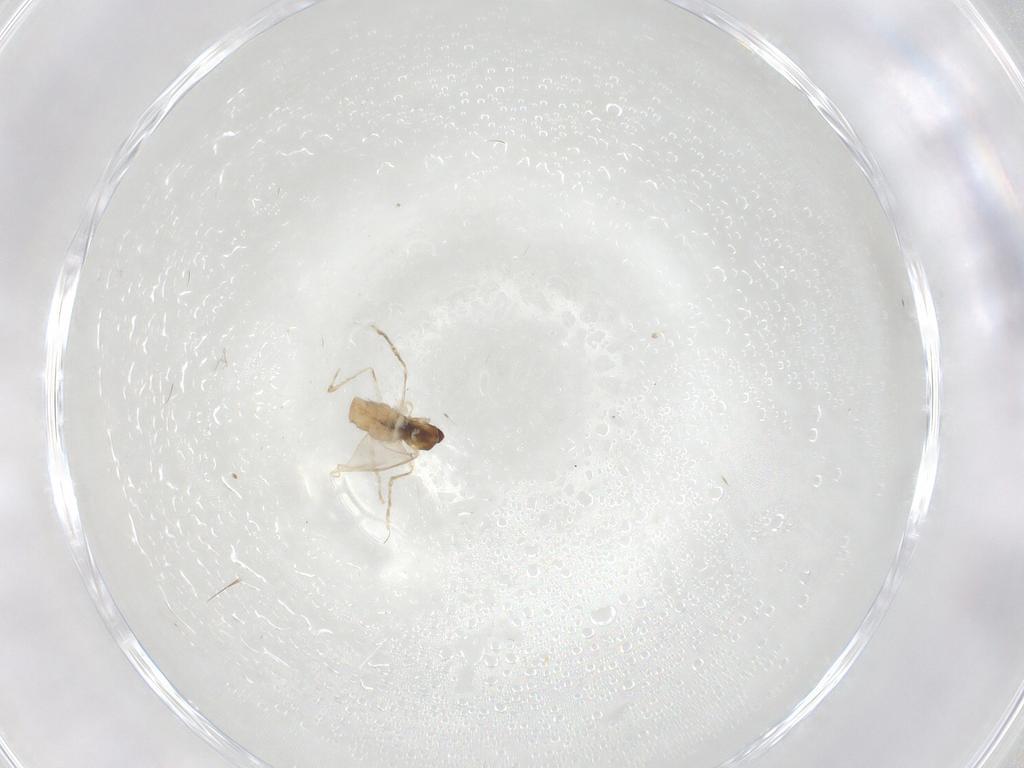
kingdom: Animalia
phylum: Arthropoda
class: Insecta
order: Diptera
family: Cecidomyiidae
